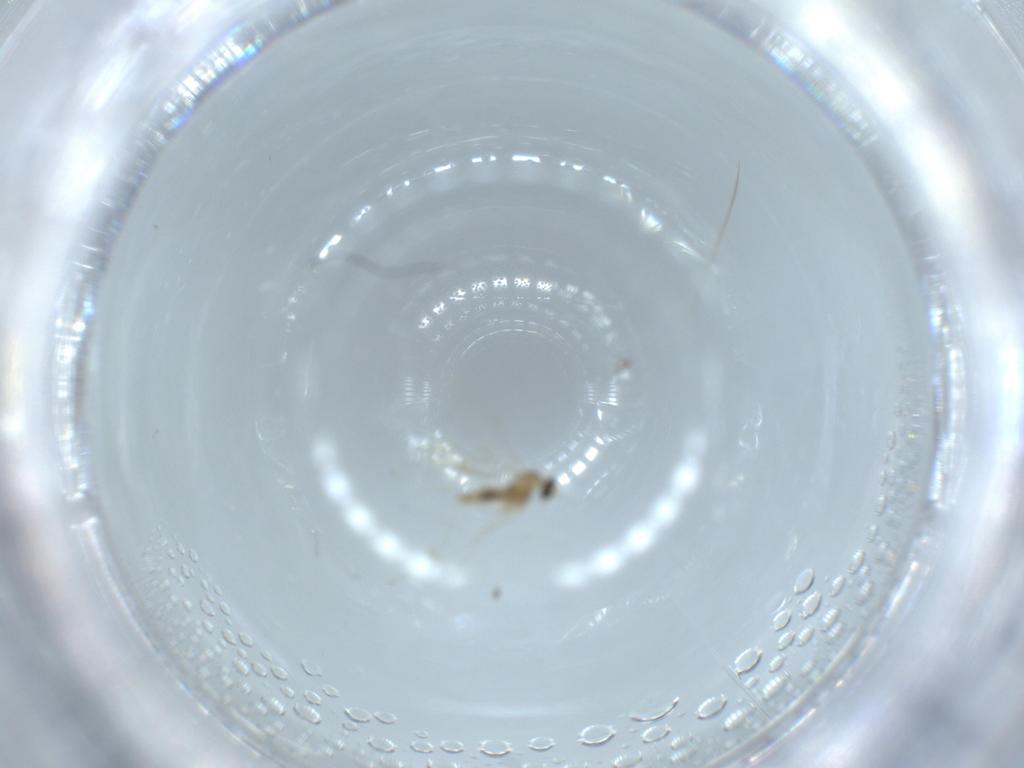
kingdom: Animalia
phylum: Arthropoda
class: Insecta
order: Diptera
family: Cecidomyiidae
